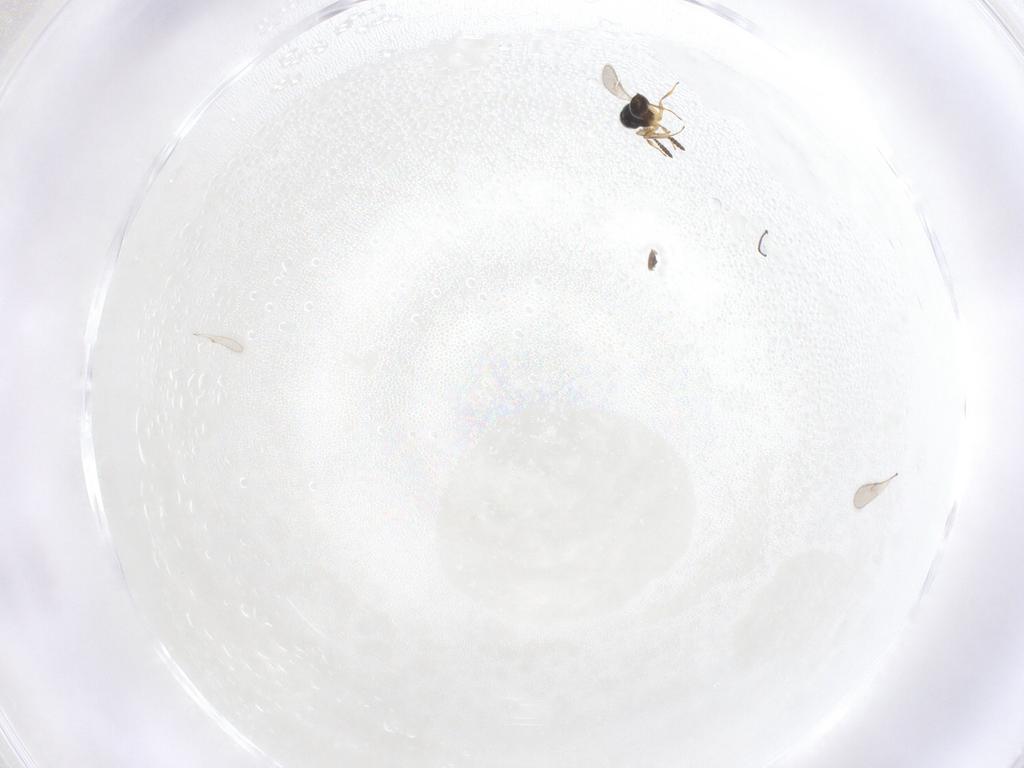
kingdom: Animalia
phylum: Arthropoda
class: Insecta
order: Hymenoptera
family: Scelionidae
